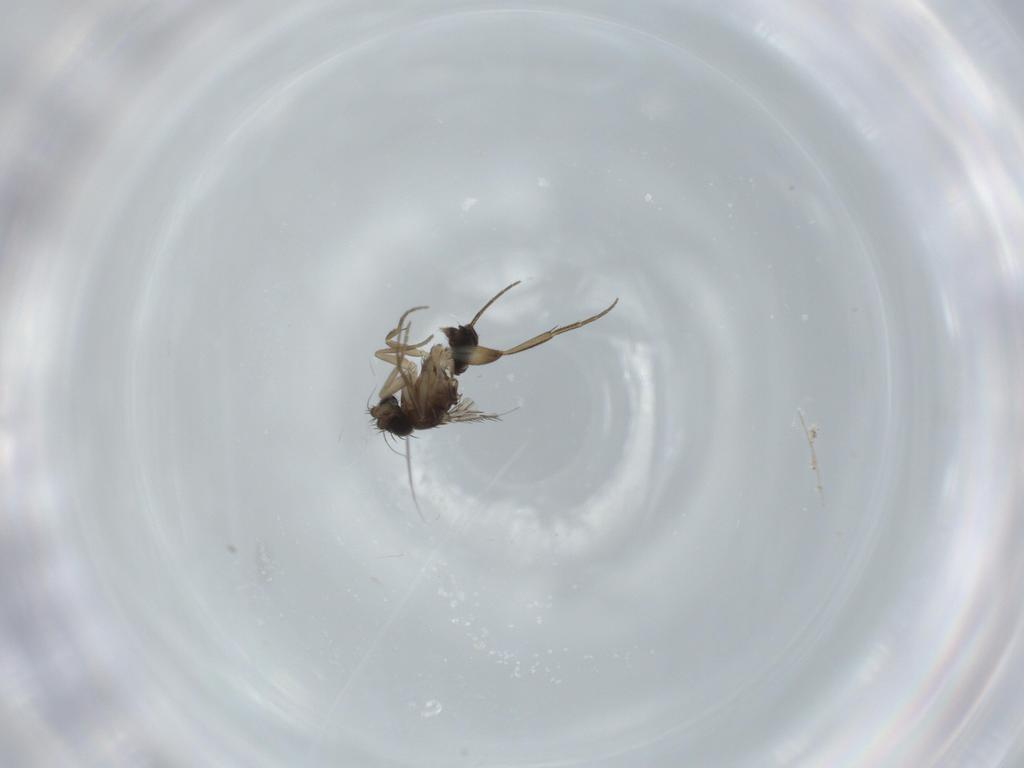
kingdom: Animalia
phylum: Arthropoda
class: Insecta
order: Diptera
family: Phoridae
